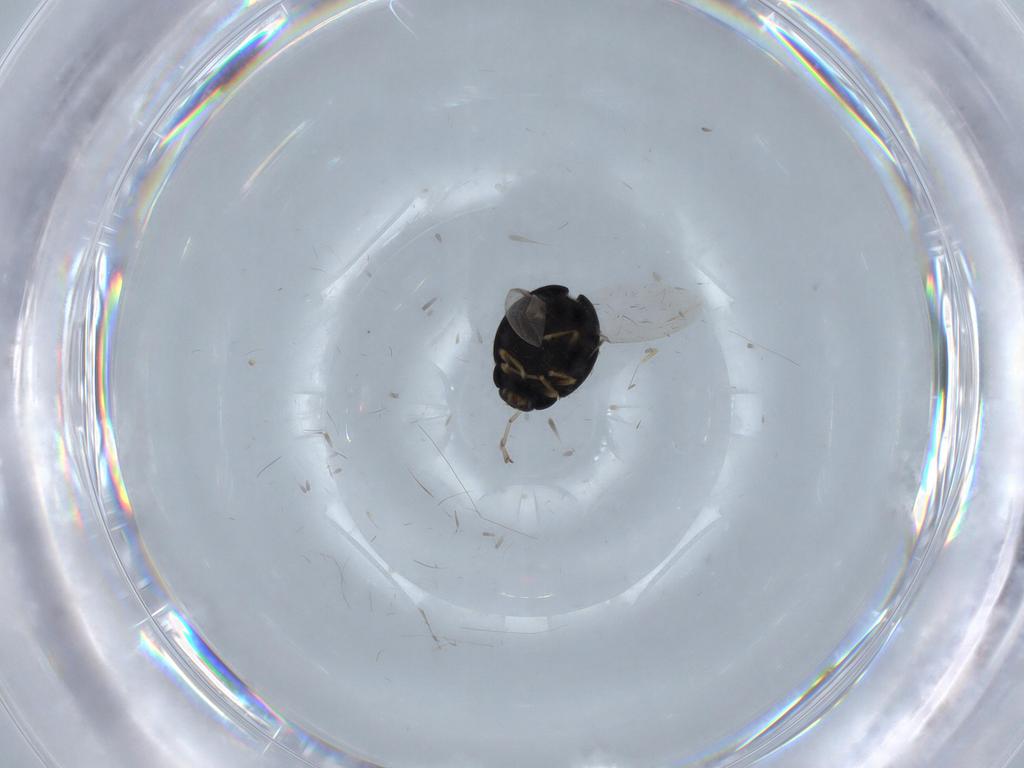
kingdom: Animalia
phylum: Arthropoda
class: Insecta
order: Coleoptera
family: Coccinellidae
